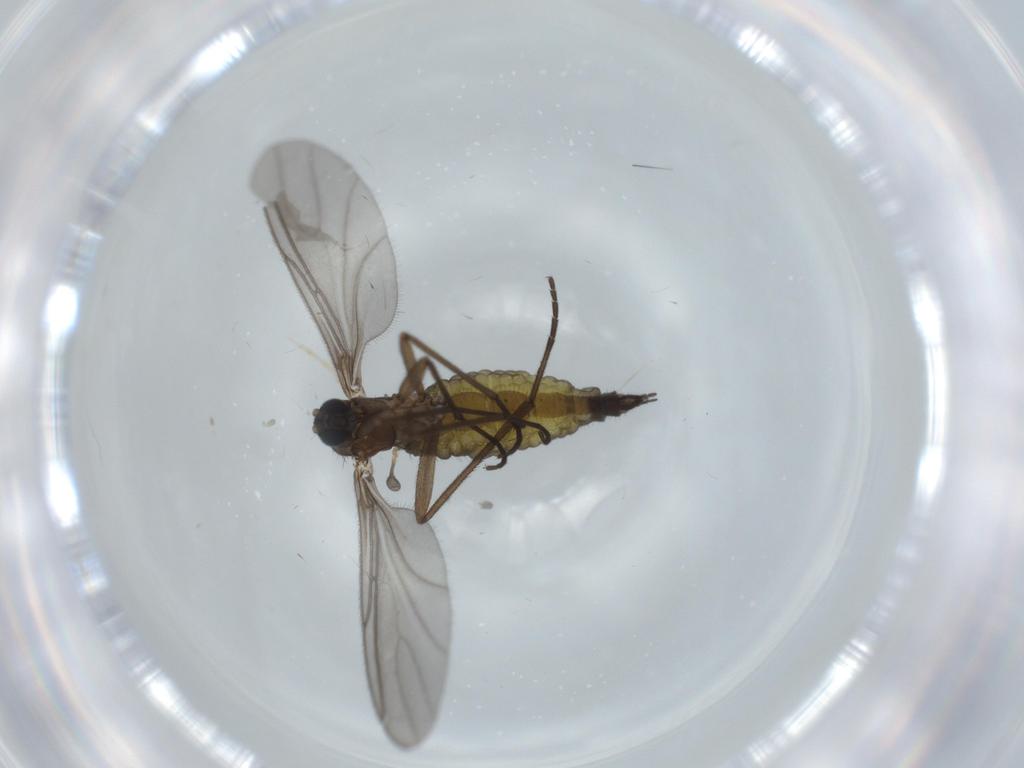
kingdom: Animalia
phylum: Arthropoda
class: Insecta
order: Diptera
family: Sciaridae
